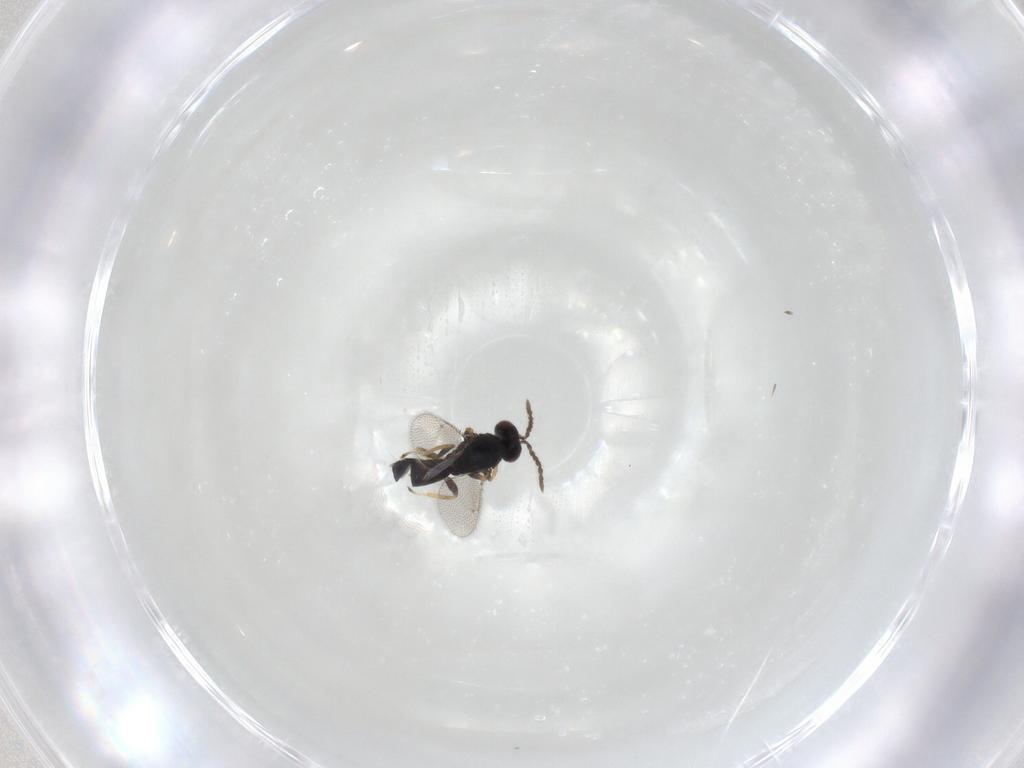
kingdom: Animalia
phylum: Arthropoda
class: Insecta
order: Hymenoptera
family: Eulophidae
